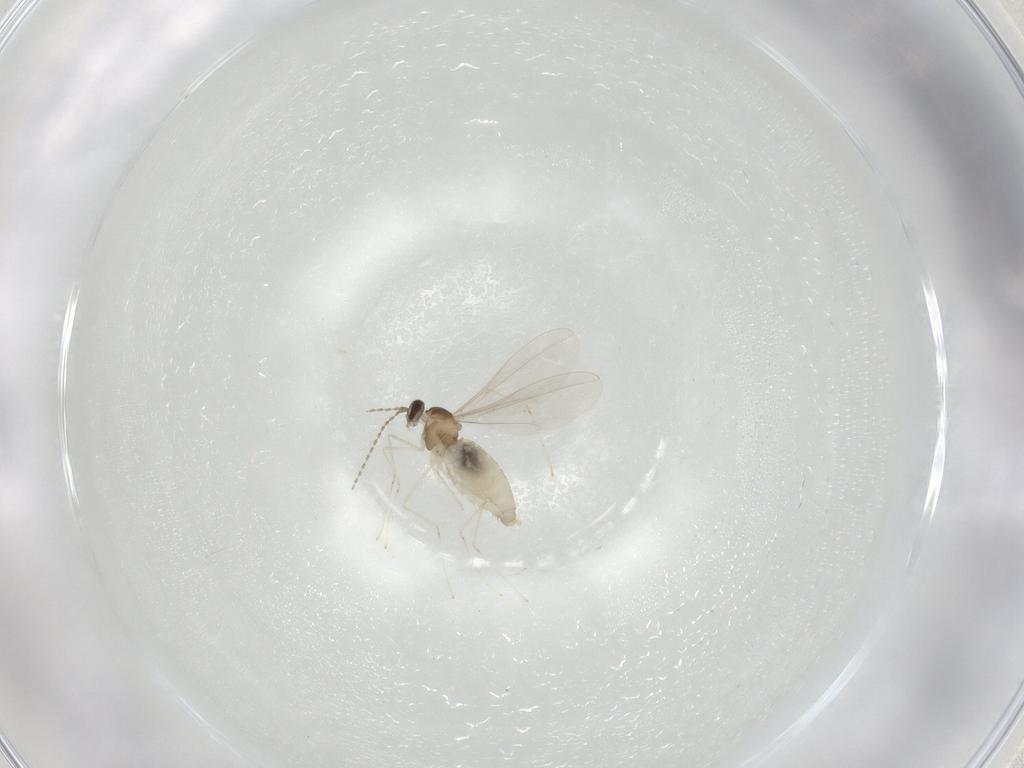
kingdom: Animalia
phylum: Arthropoda
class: Insecta
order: Diptera
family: Cecidomyiidae
